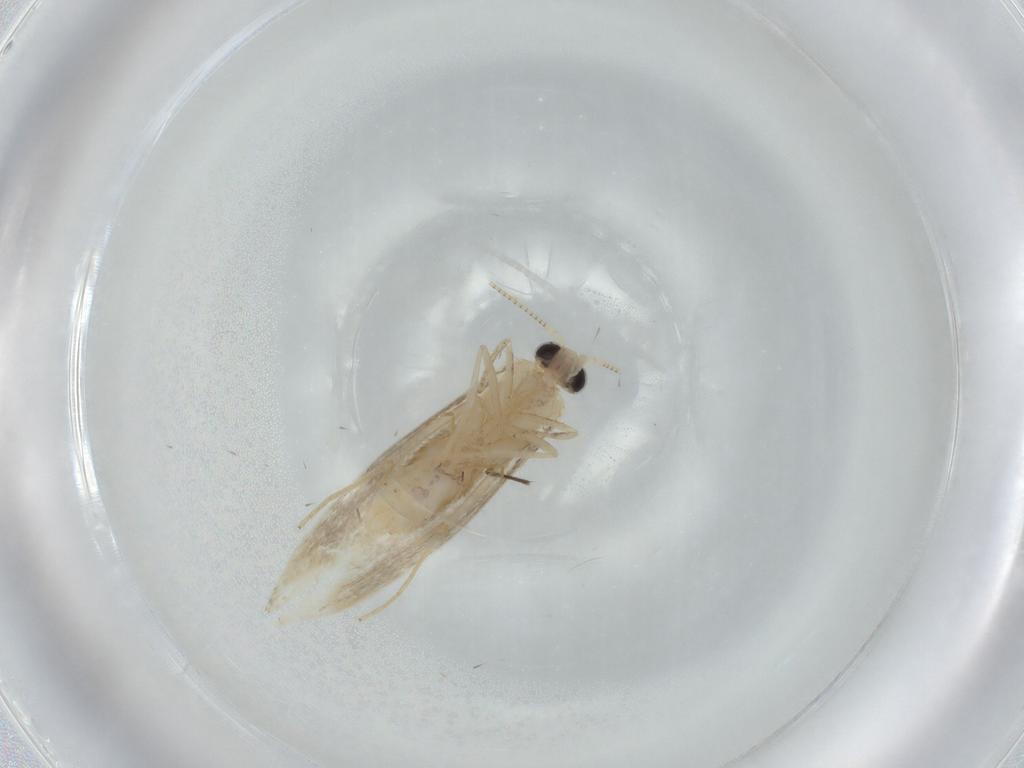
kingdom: Animalia
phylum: Arthropoda
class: Insecta
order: Lepidoptera
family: Nepticulidae
